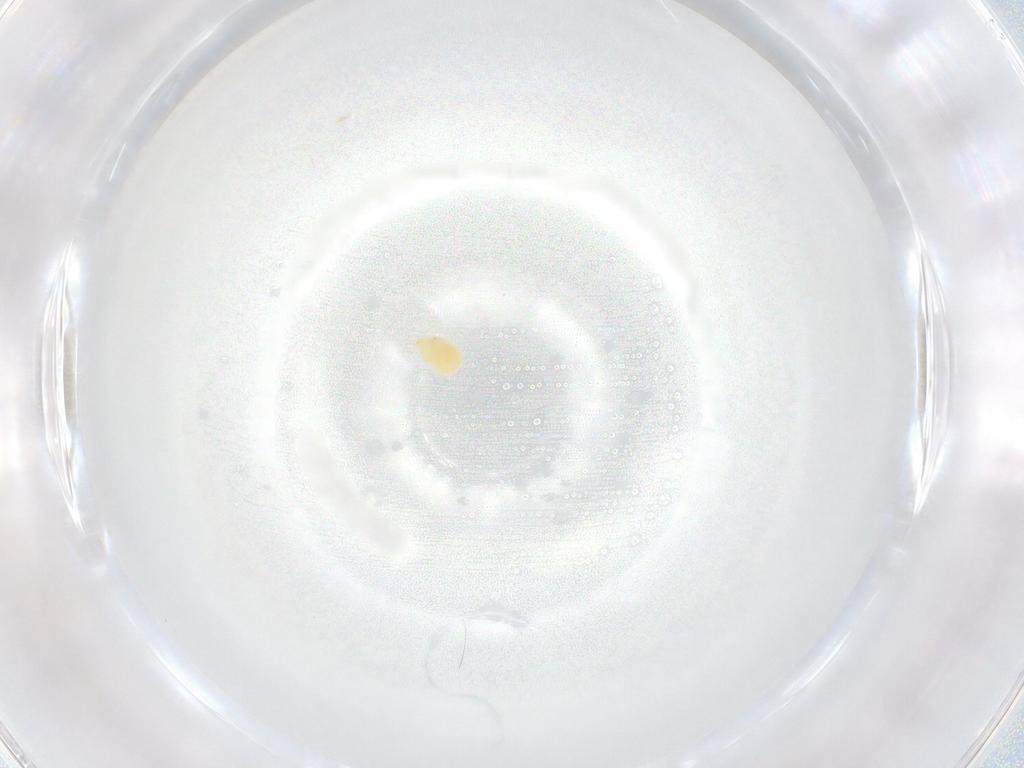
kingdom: Animalia
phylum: Arthropoda
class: Arachnida
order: Trombidiformes
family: Hydryphantidae
